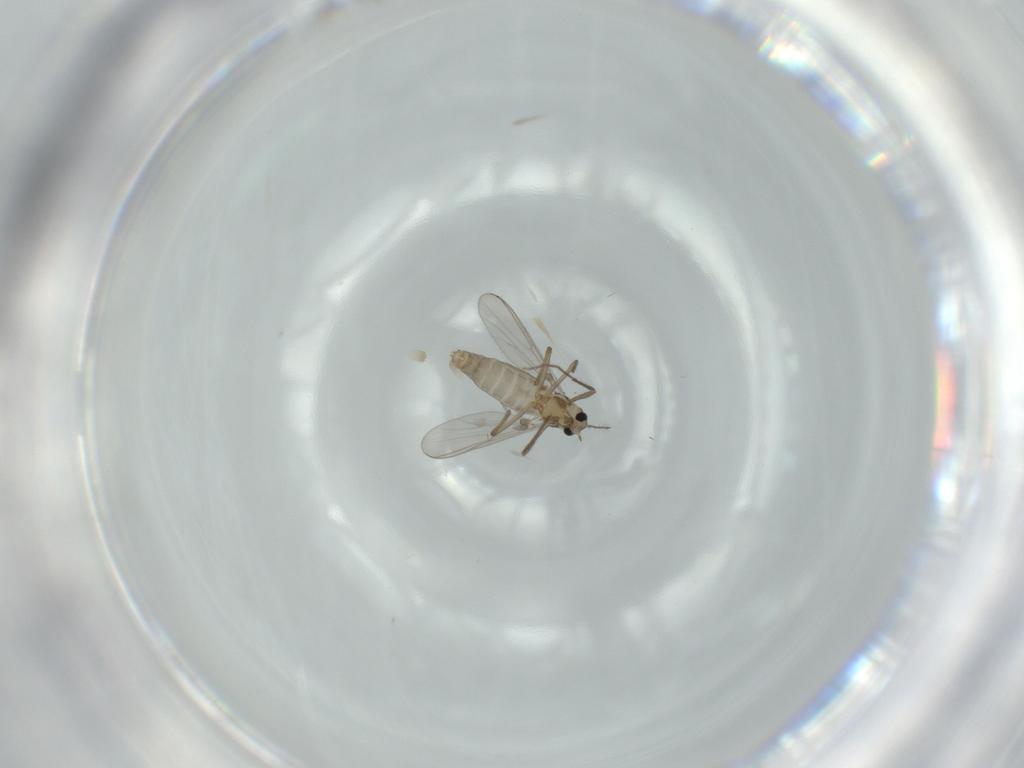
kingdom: Animalia
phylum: Arthropoda
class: Insecta
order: Diptera
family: Chironomidae
